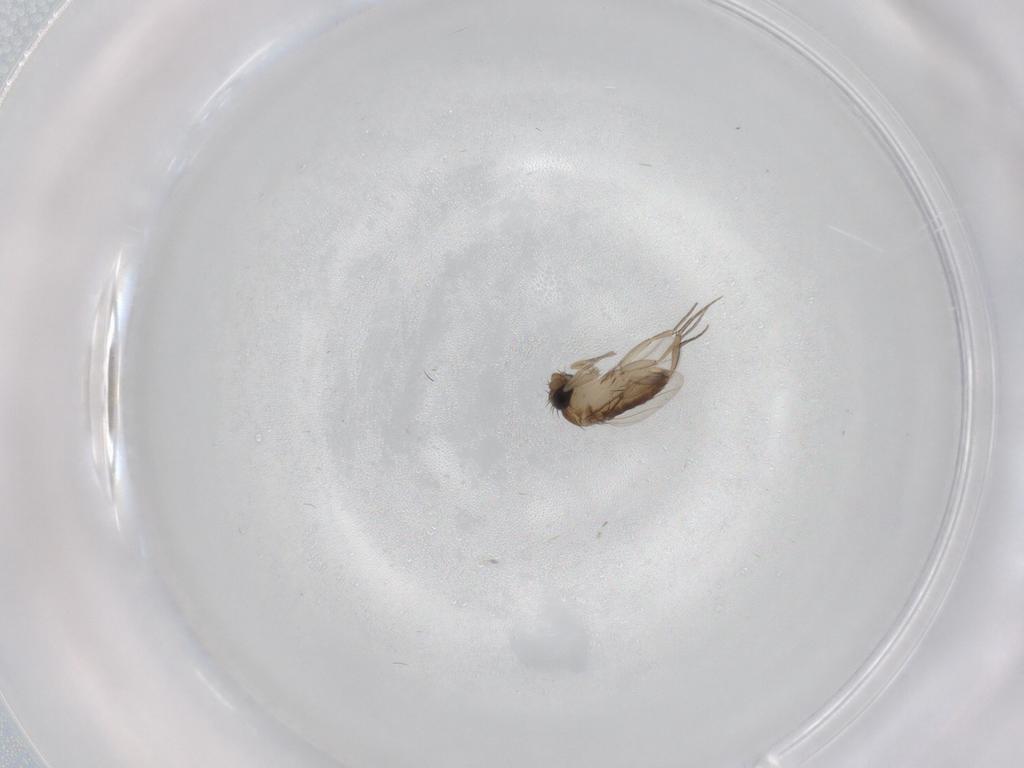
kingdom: Animalia
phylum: Arthropoda
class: Insecta
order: Diptera
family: Phoridae
